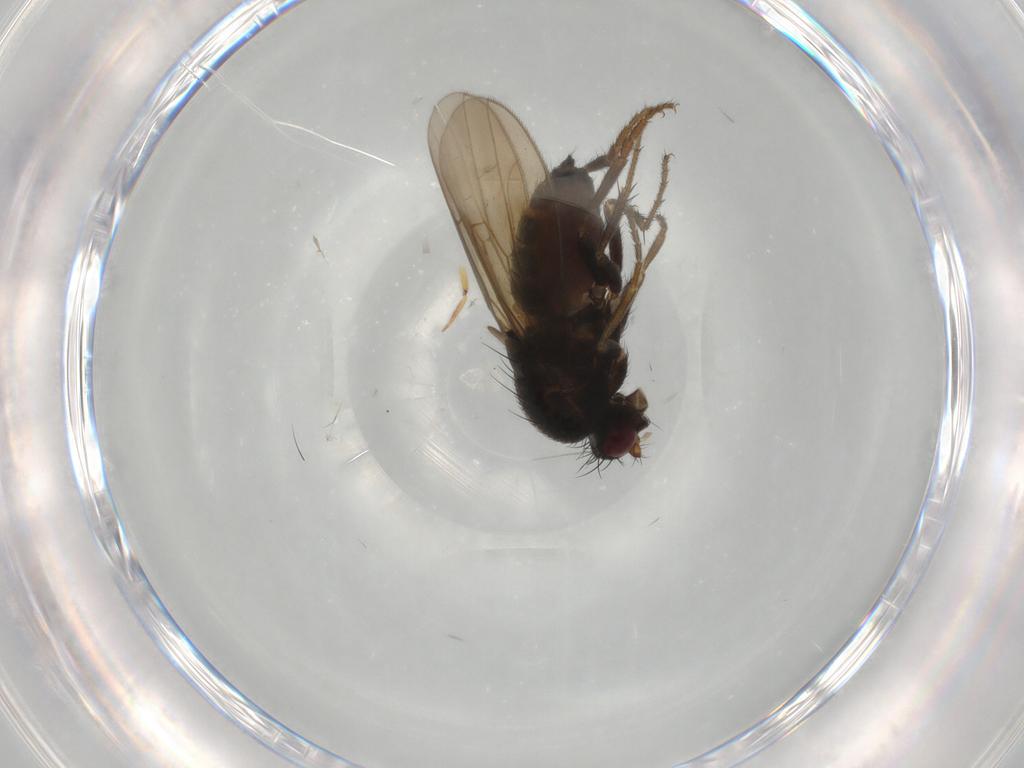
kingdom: Animalia
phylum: Arthropoda
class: Insecta
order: Diptera
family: Sphaeroceridae
